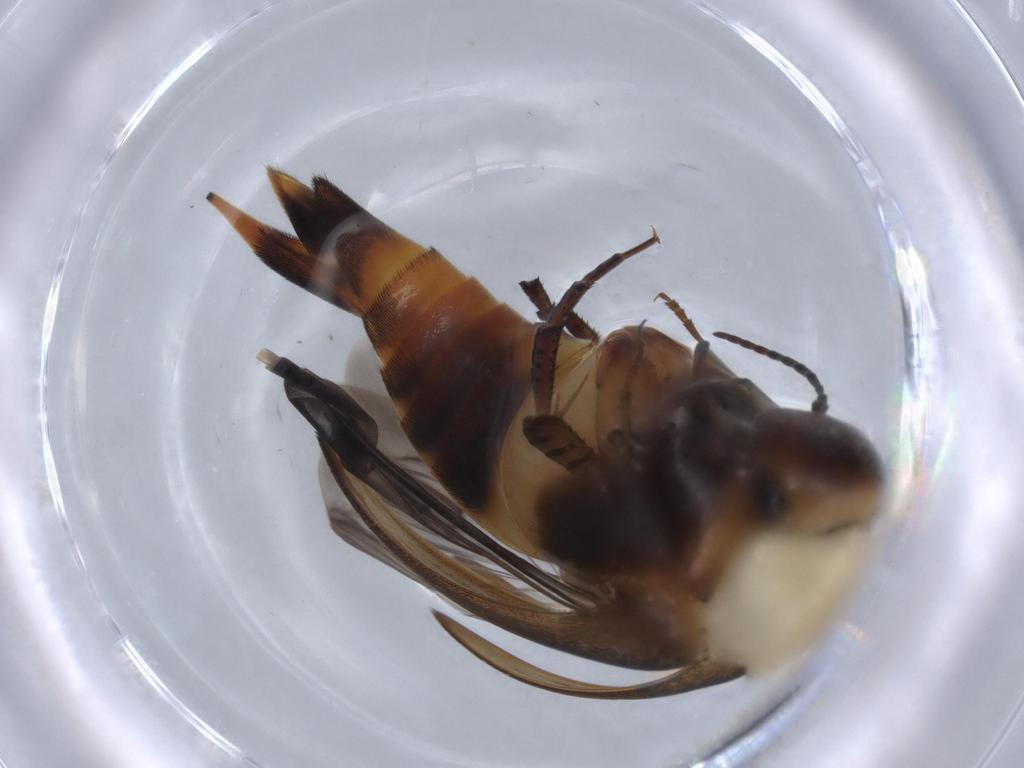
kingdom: Animalia
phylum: Arthropoda
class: Insecta
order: Coleoptera
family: Mordellidae
